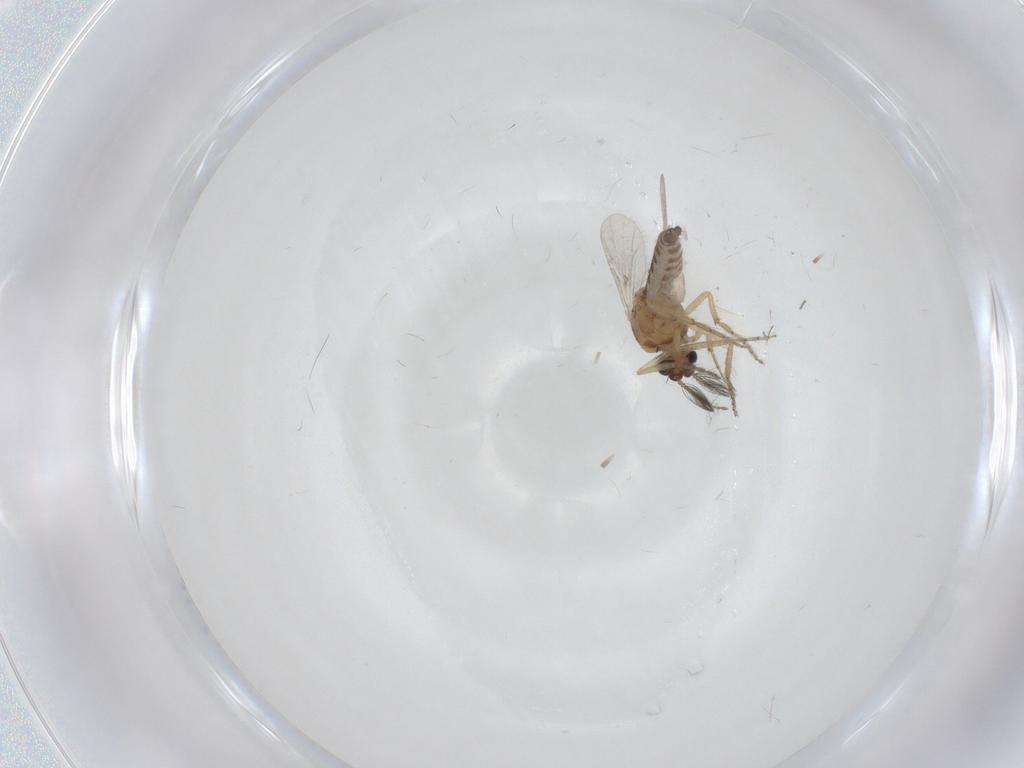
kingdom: Animalia
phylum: Arthropoda
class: Insecta
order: Diptera
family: Ceratopogonidae
